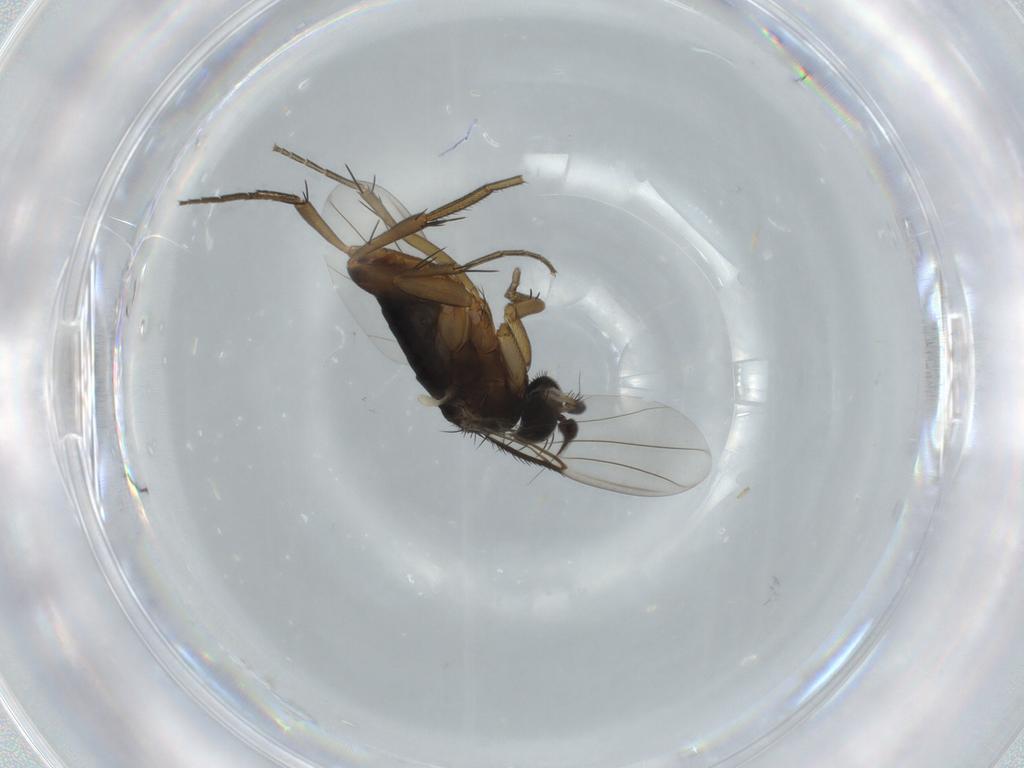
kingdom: Animalia
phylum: Arthropoda
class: Insecta
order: Diptera
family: Phoridae
